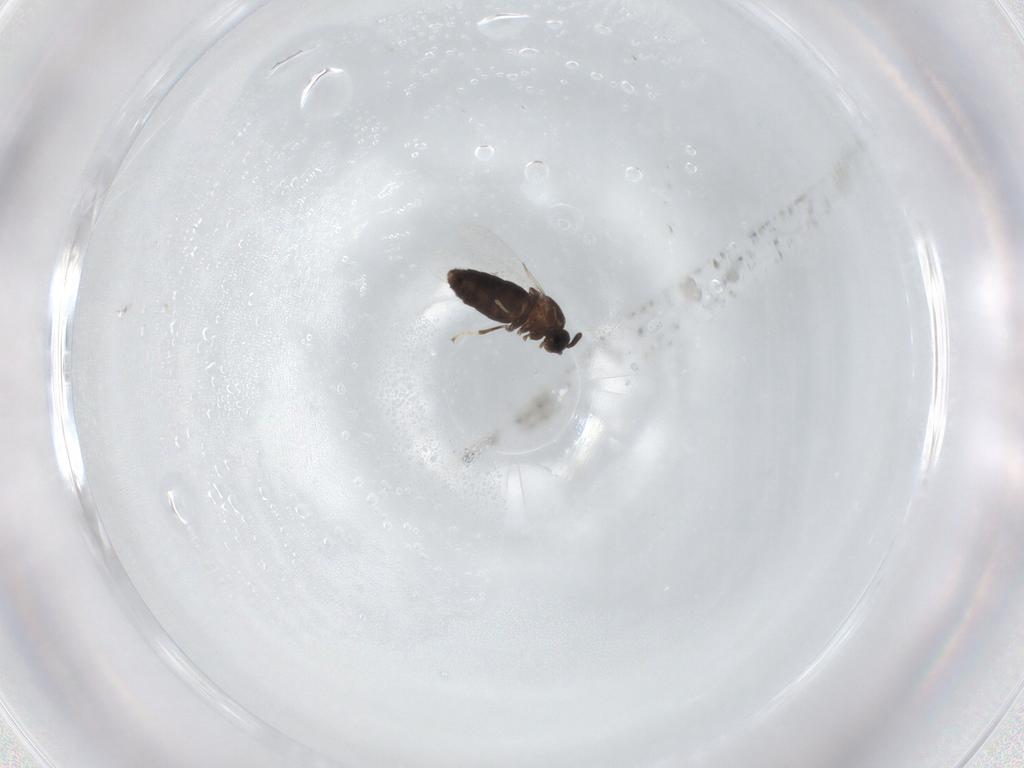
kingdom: Animalia
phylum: Arthropoda
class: Insecta
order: Diptera
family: Scatopsidae
